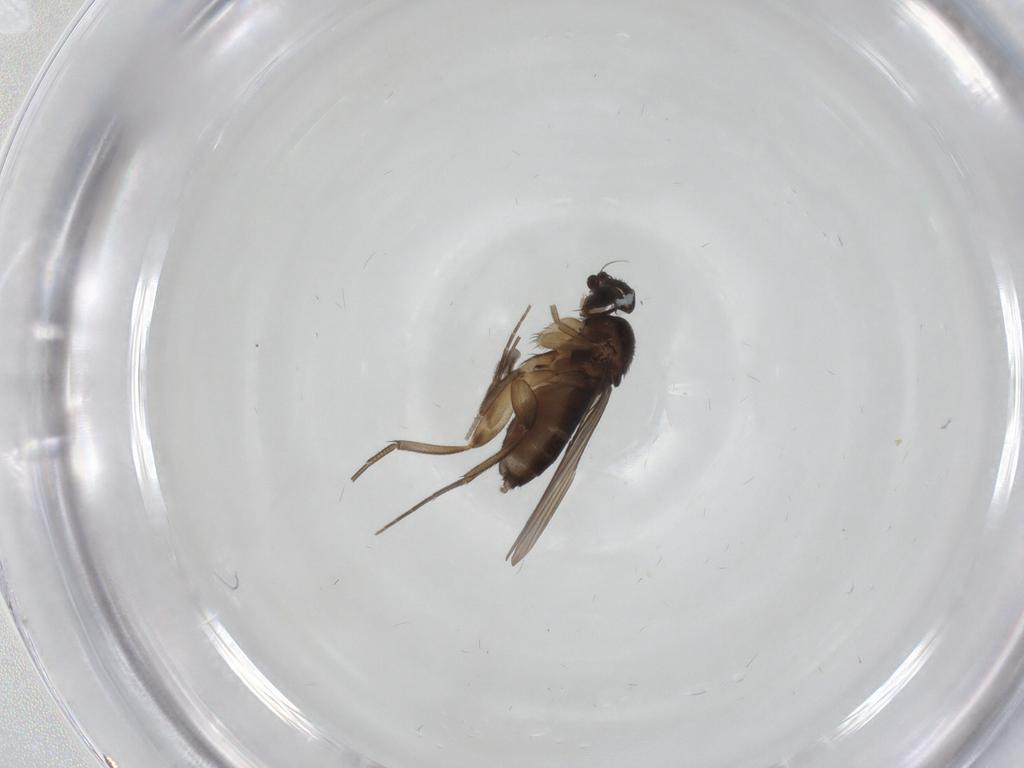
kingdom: Animalia
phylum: Arthropoda
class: Insecta
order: Diptera
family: Phoridae
